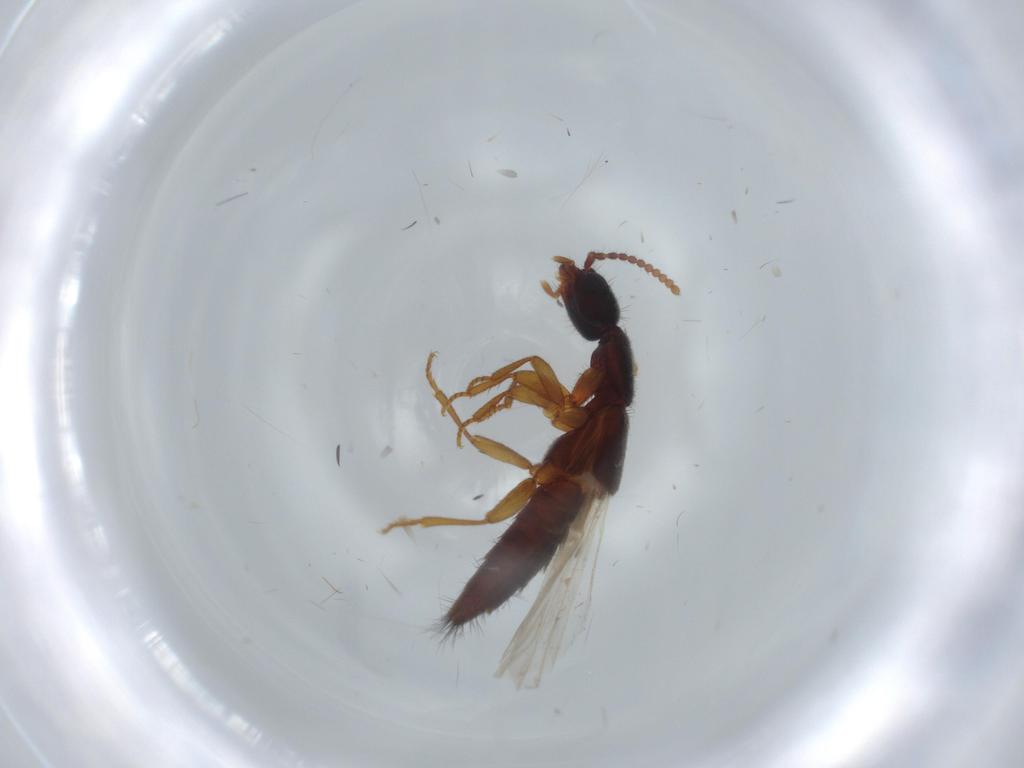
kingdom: Animalia
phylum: Arthropoda
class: Insecta
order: Coleoptera
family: Staphylinidae
